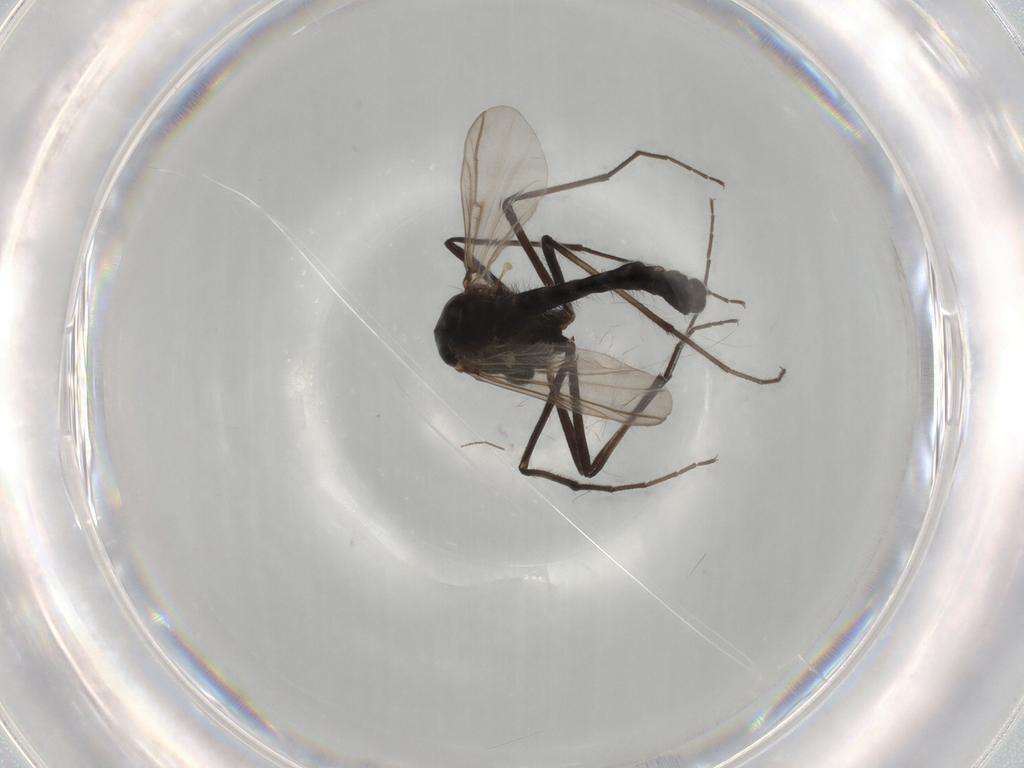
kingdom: Animalia
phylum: Arthropoda
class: Insecta
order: Diptera
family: Chironomidae
